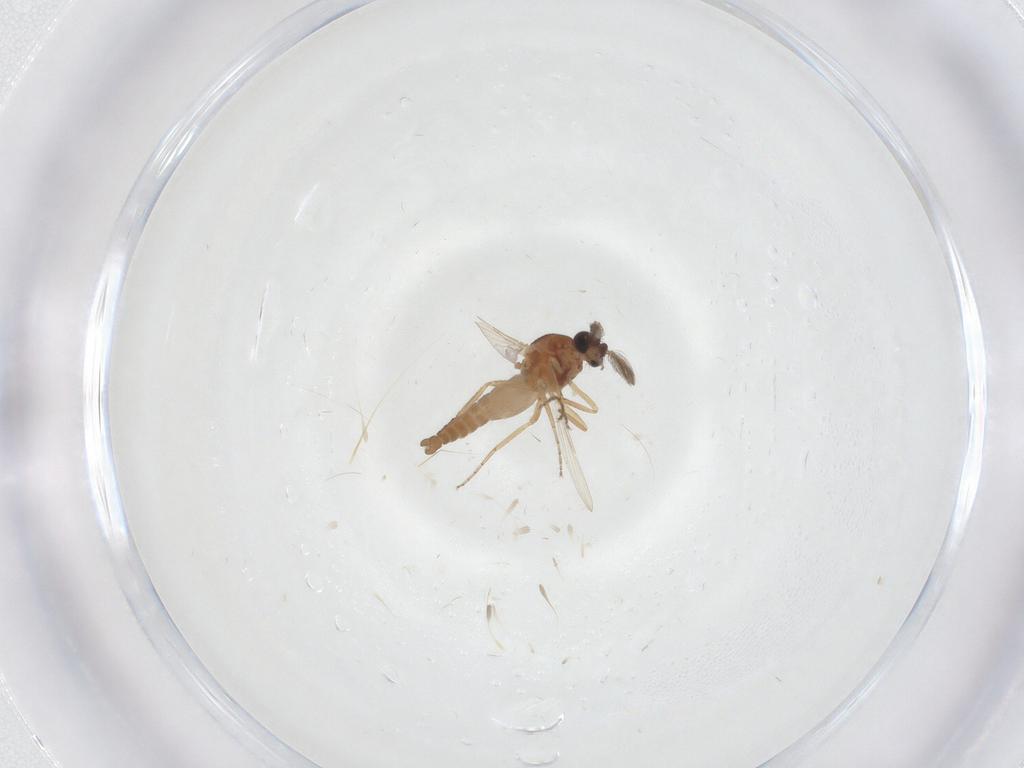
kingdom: Animalia
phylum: Arthropoda
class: Insecta
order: Diptera
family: Ceratopogonidae
